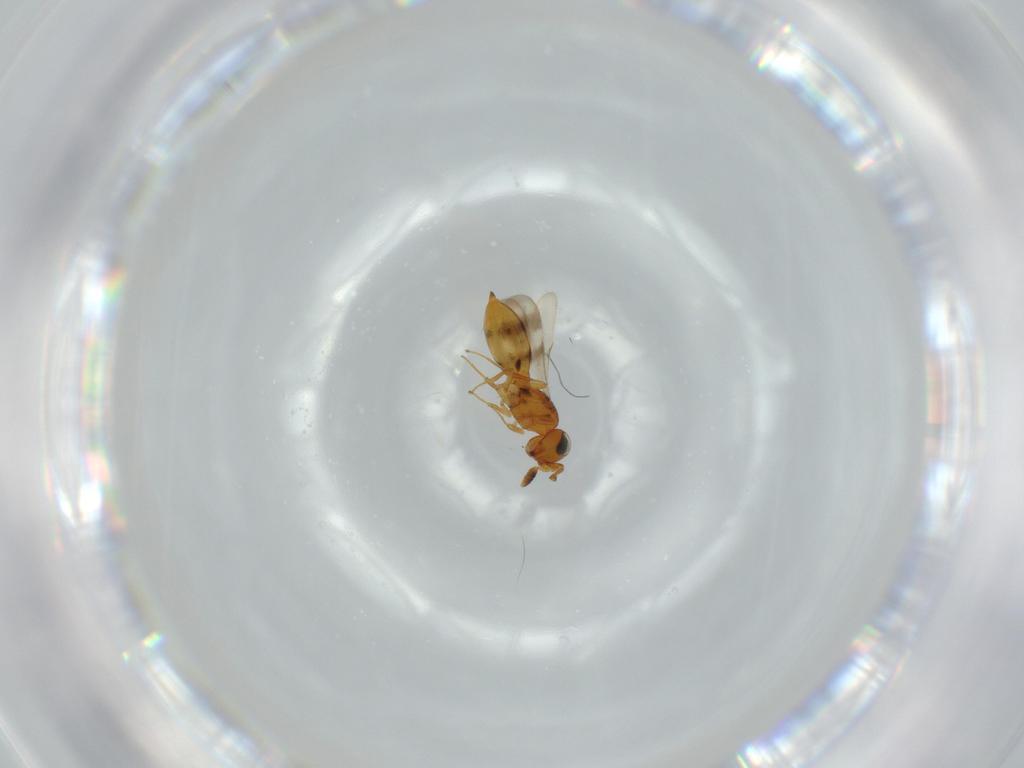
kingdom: Animalia
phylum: Arthropoda
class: Insecta
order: Hymenoptera
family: Scelionidae
